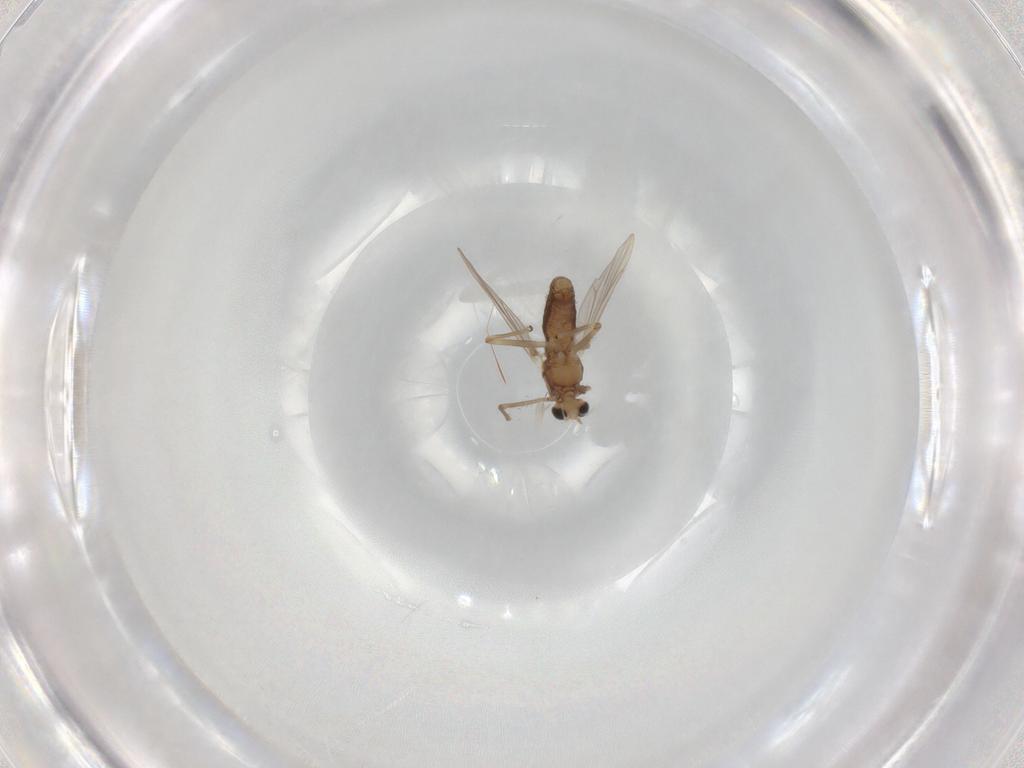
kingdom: Animalia
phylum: Arthropoda
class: Insecta
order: Diptera
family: Chironomidae
